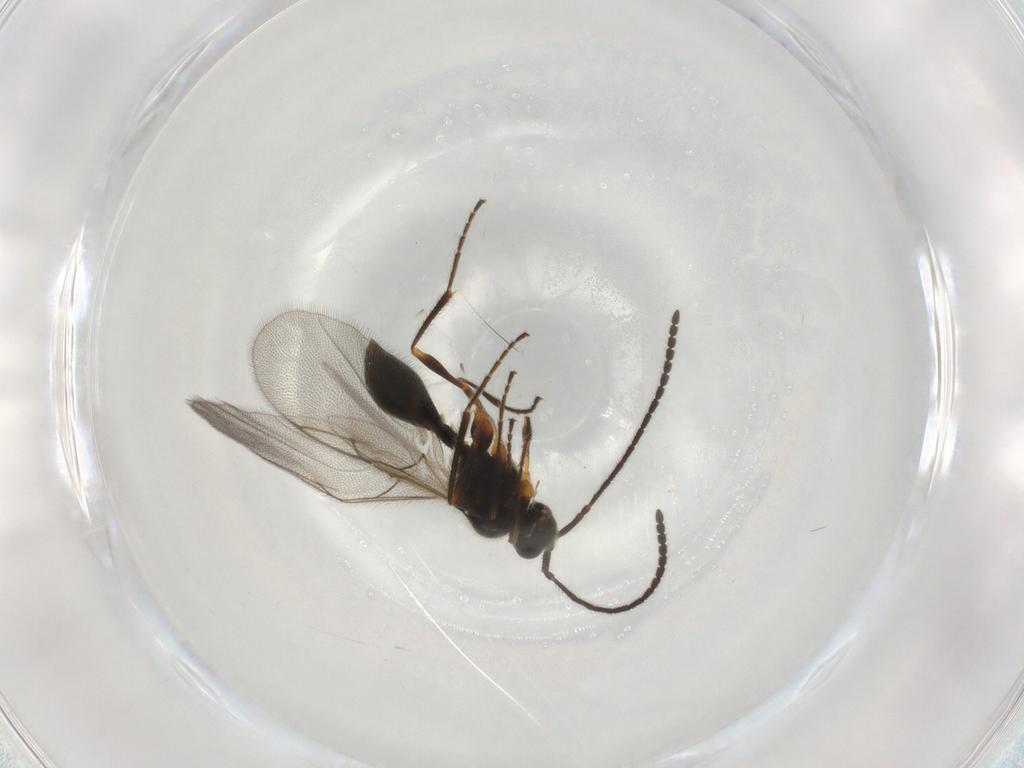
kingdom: Animalia
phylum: Arthropoda
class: Insecta
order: Hymenoptera
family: Diapriidae
